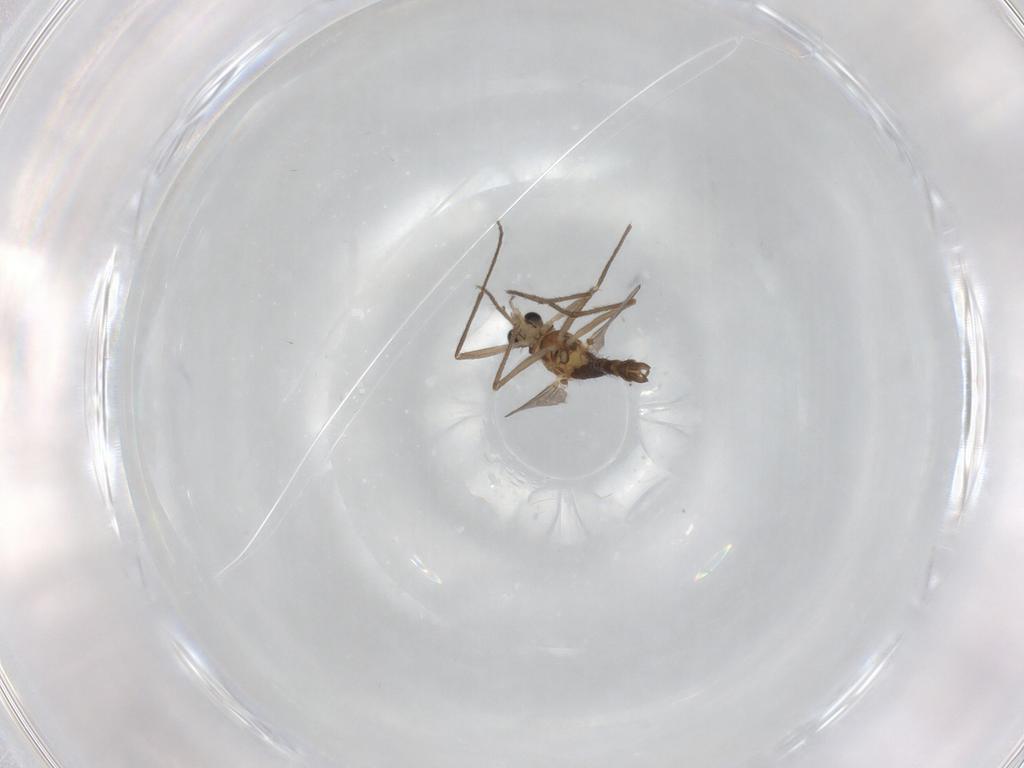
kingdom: Animalia
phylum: Arthropoda
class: Insecta
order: Diptera
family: Chironomidae
